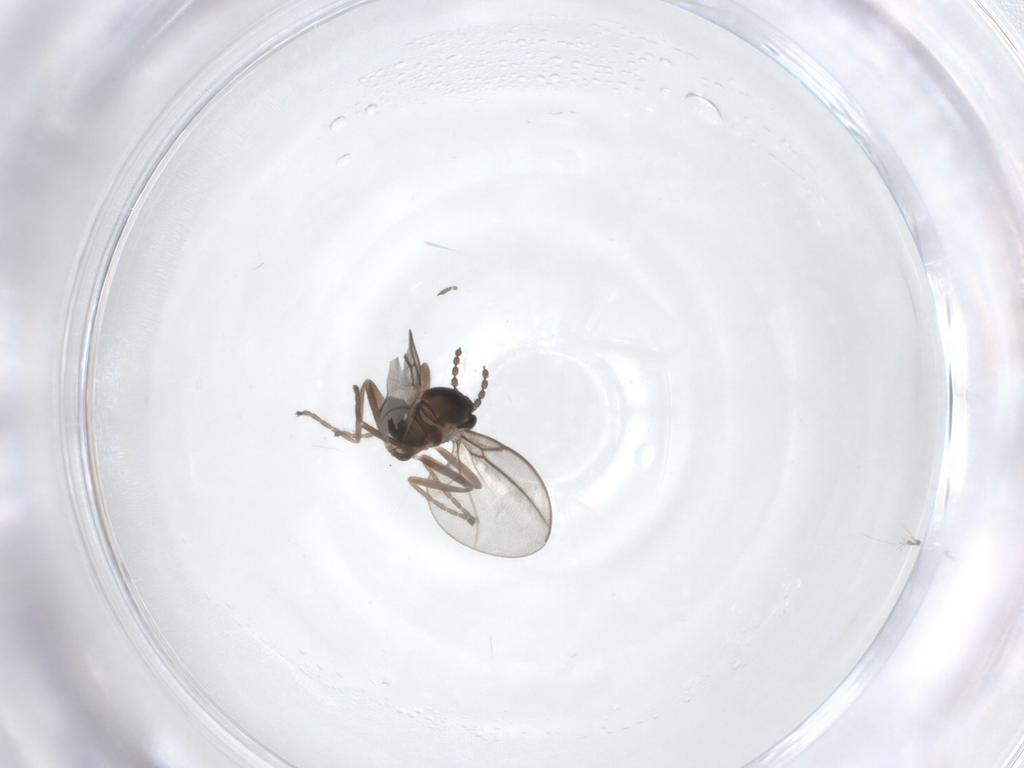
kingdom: Animalia
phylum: Arthropoda
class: Insecta
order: Diptera
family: Cecidomyiidae
